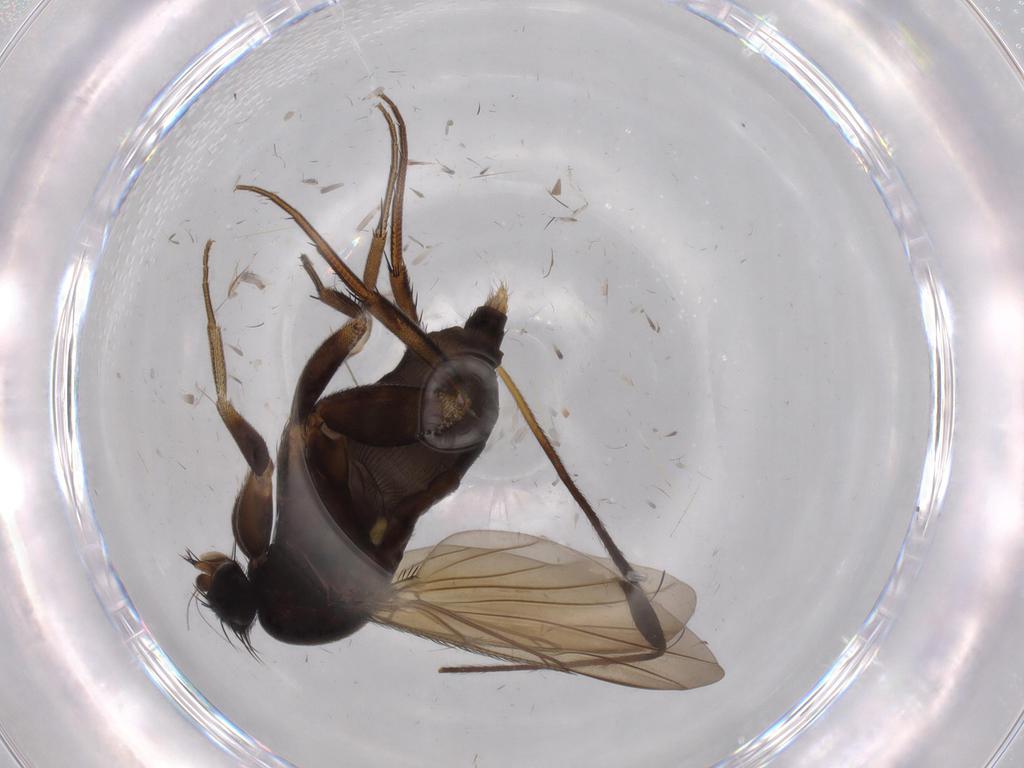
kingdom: Animalia
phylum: Arthropoda
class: Insecta
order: Diptera
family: Phoridae
